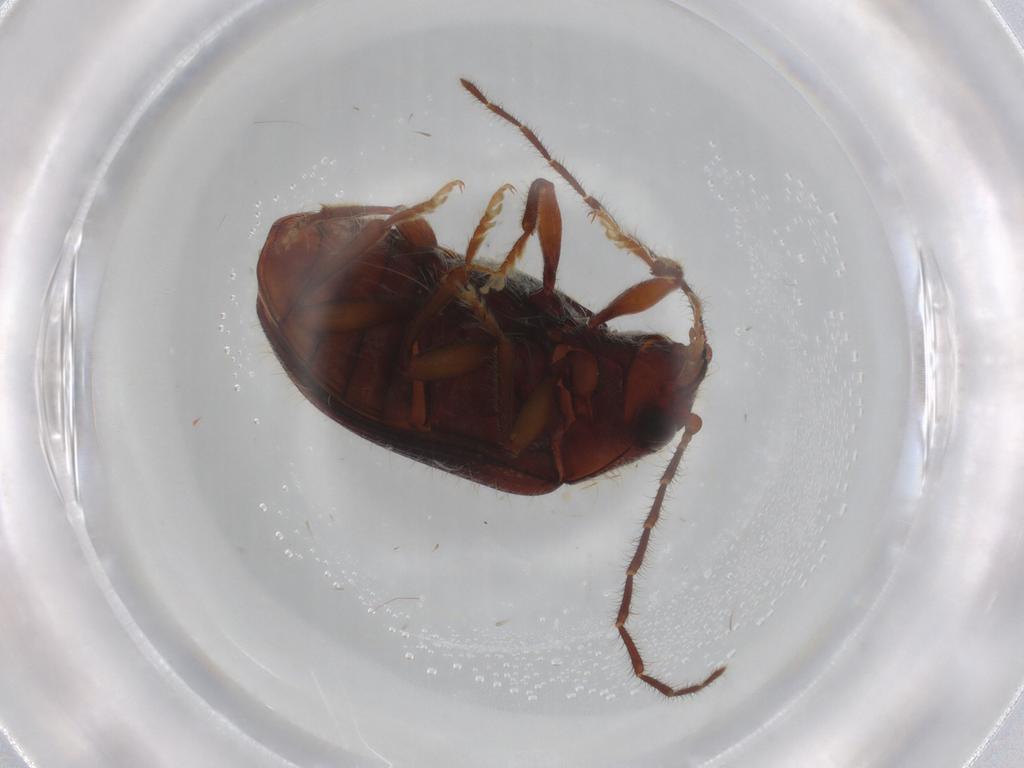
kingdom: Animalia
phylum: Arthropoda
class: Insecta
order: Coleoptera
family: Artematopodidae
